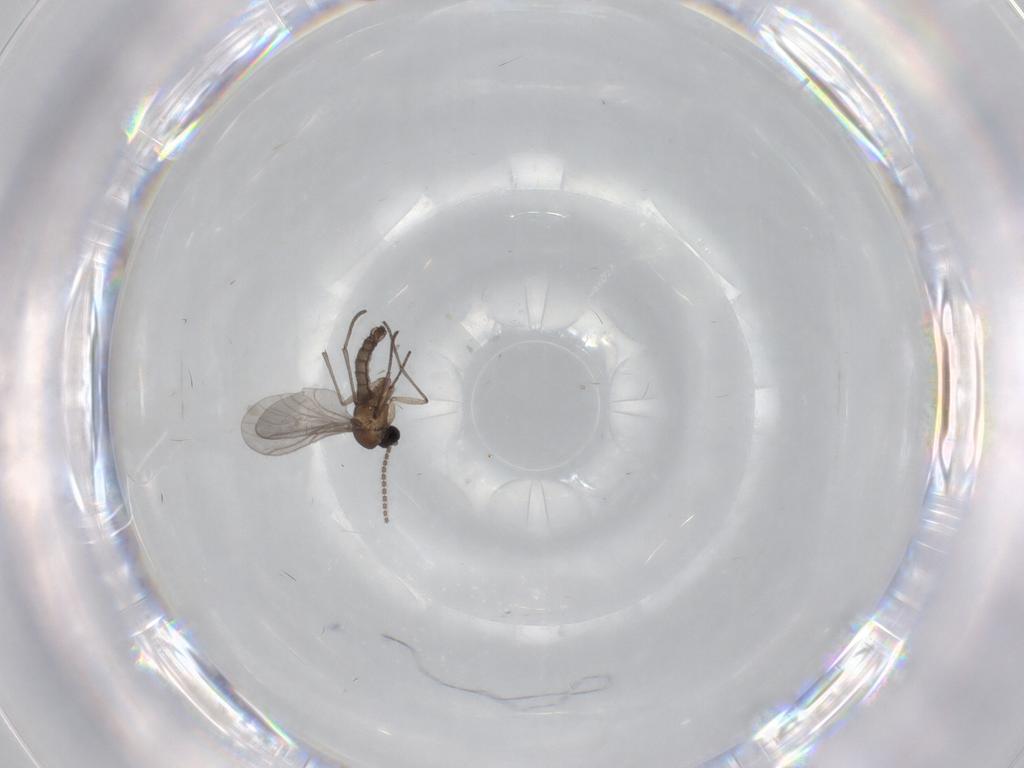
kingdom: Animalia
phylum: Arthropoda
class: Insecta
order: Diptera
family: Sciaridae
